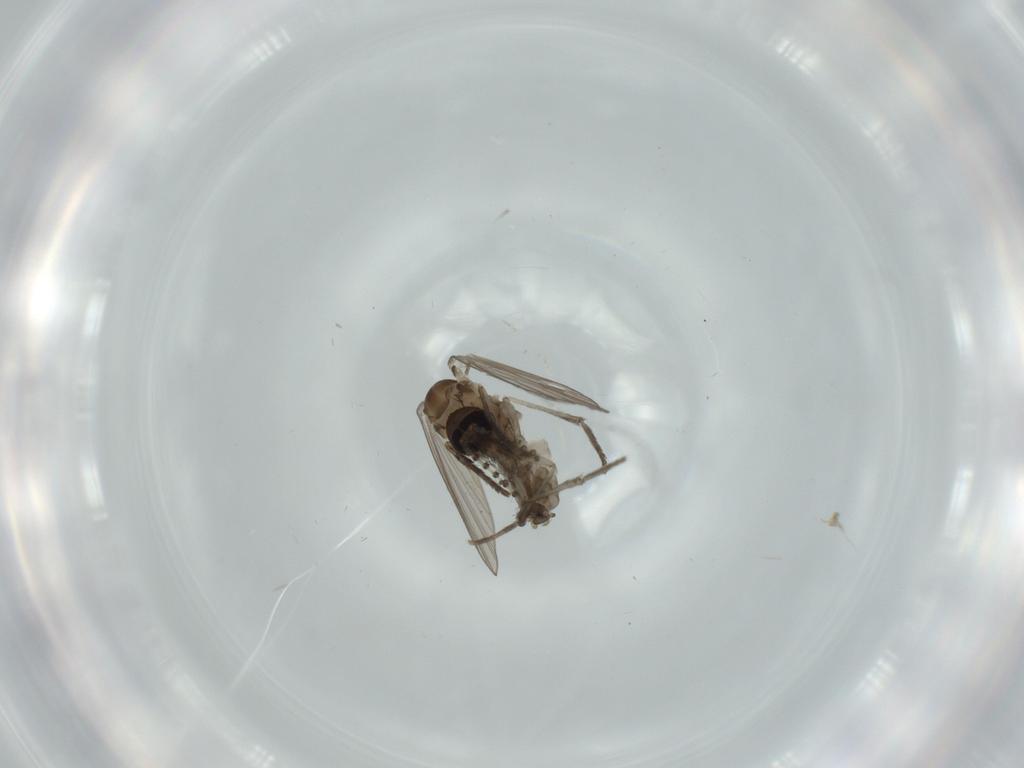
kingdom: Animalia
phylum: Arthropoda
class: Insecta
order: Diptera
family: Psychodidae
